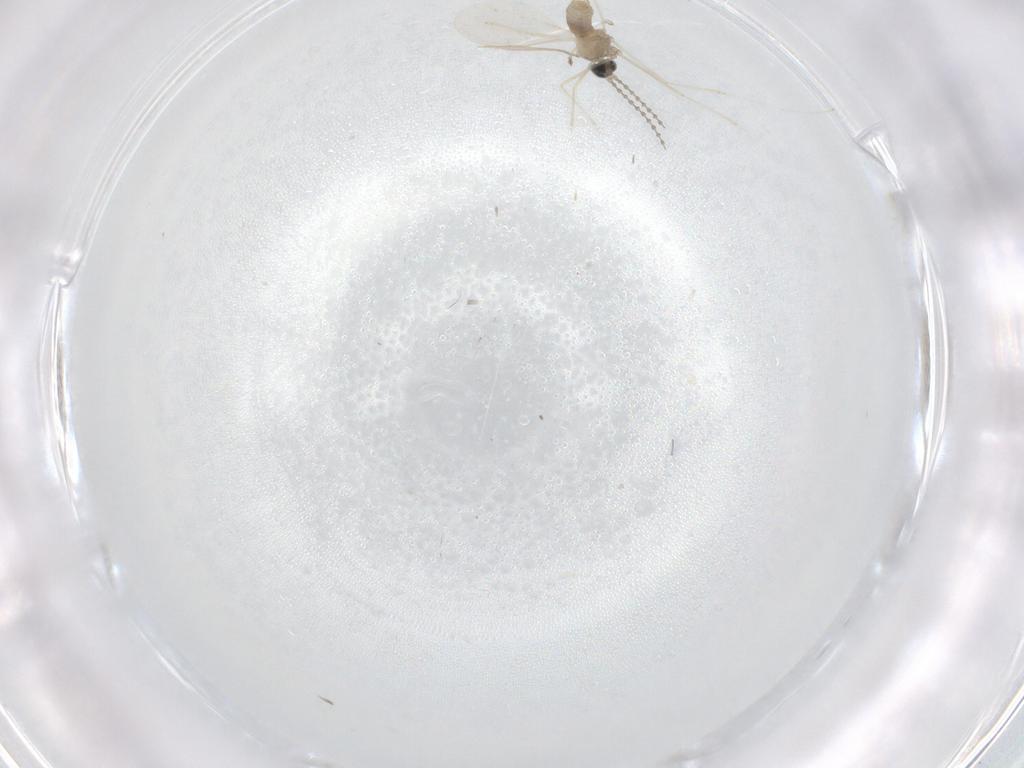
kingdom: Animalia
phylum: Arthropoda
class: Insecta
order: Diptera
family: Cecidomyiidae
